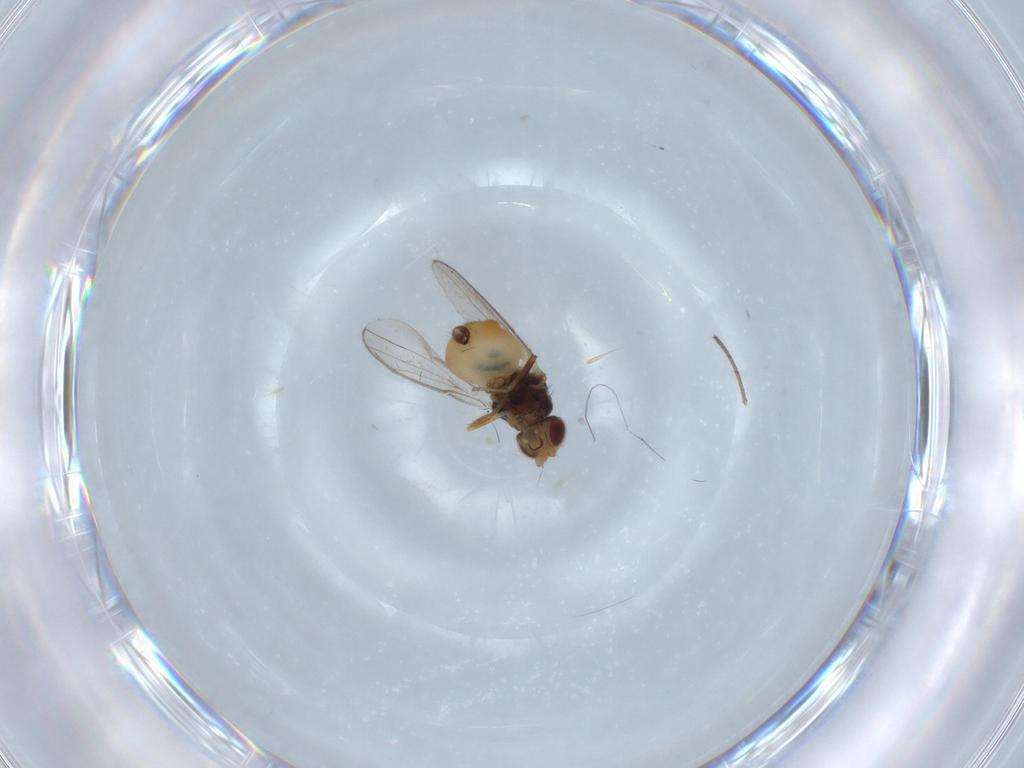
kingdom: Animalia
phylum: Arthropoda
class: Insecta
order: Diptera
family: Chloropidae
